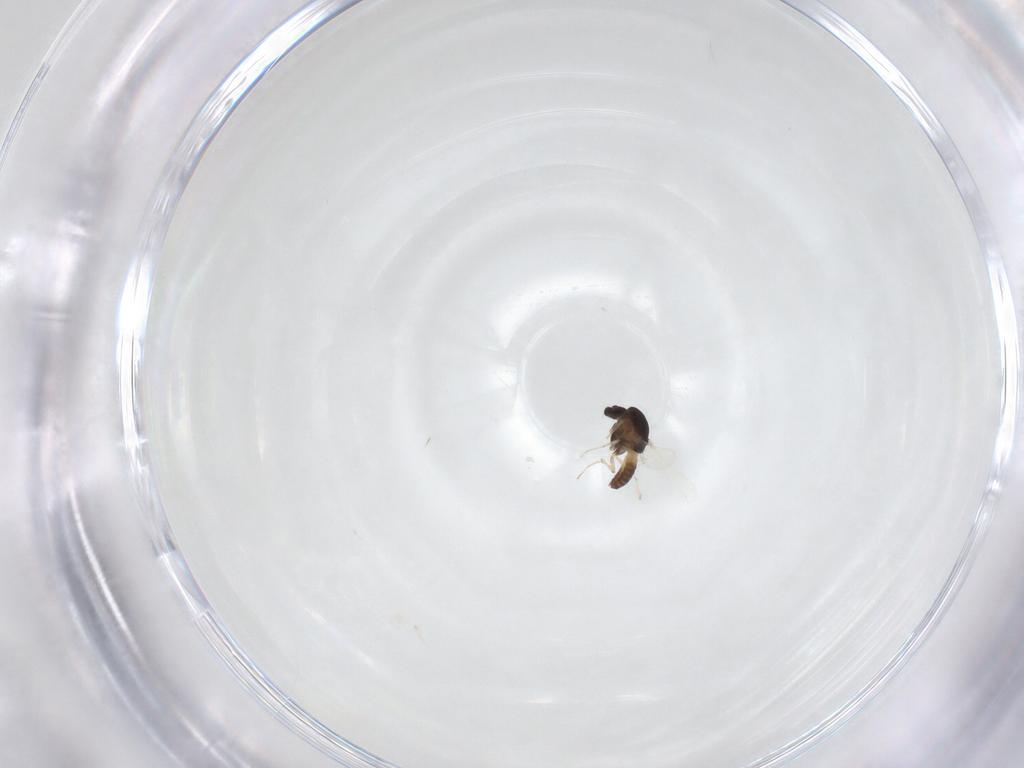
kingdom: Animalia
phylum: Arthropoda
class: Insecta
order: Diptera
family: Chironomidae
